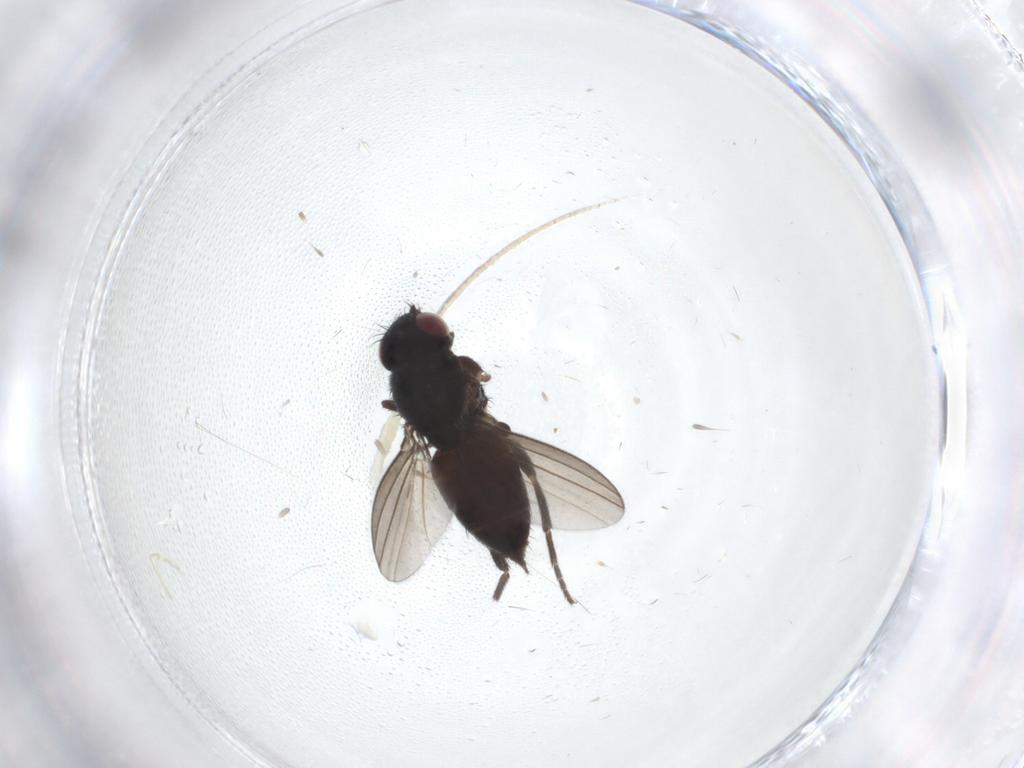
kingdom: Animalia
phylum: Arthropoda
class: Insecta
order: Diptera
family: Milichiidae
